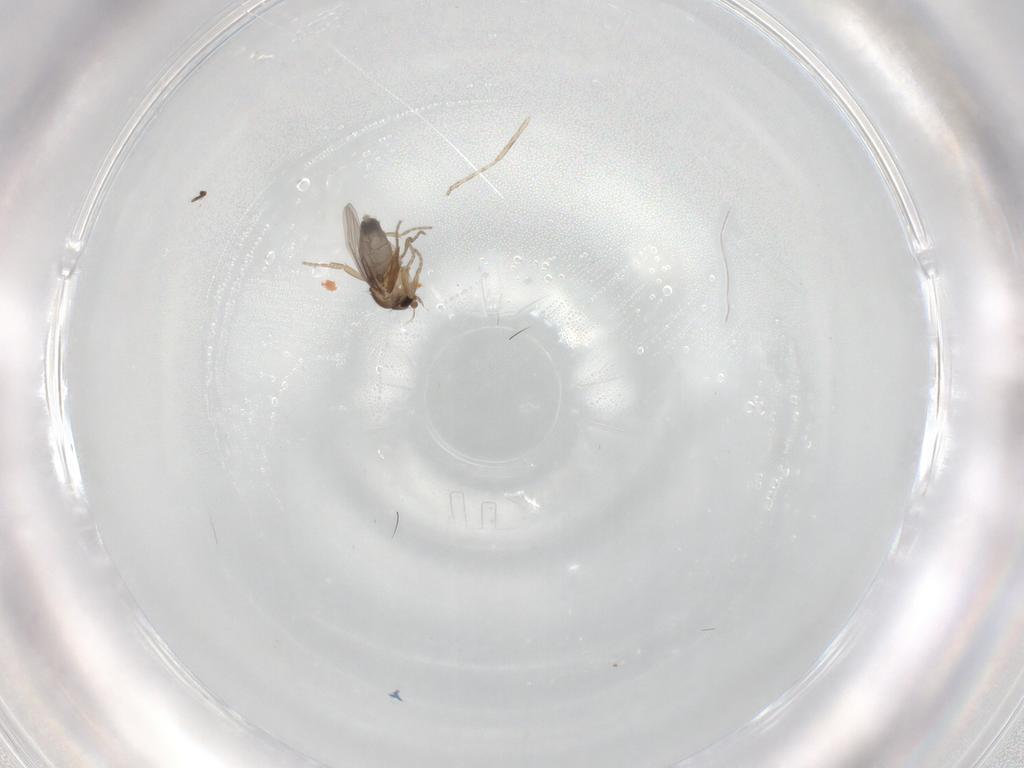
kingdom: Animalia
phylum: Arthropoda
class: Insecta
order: Diptera
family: Phoridae
